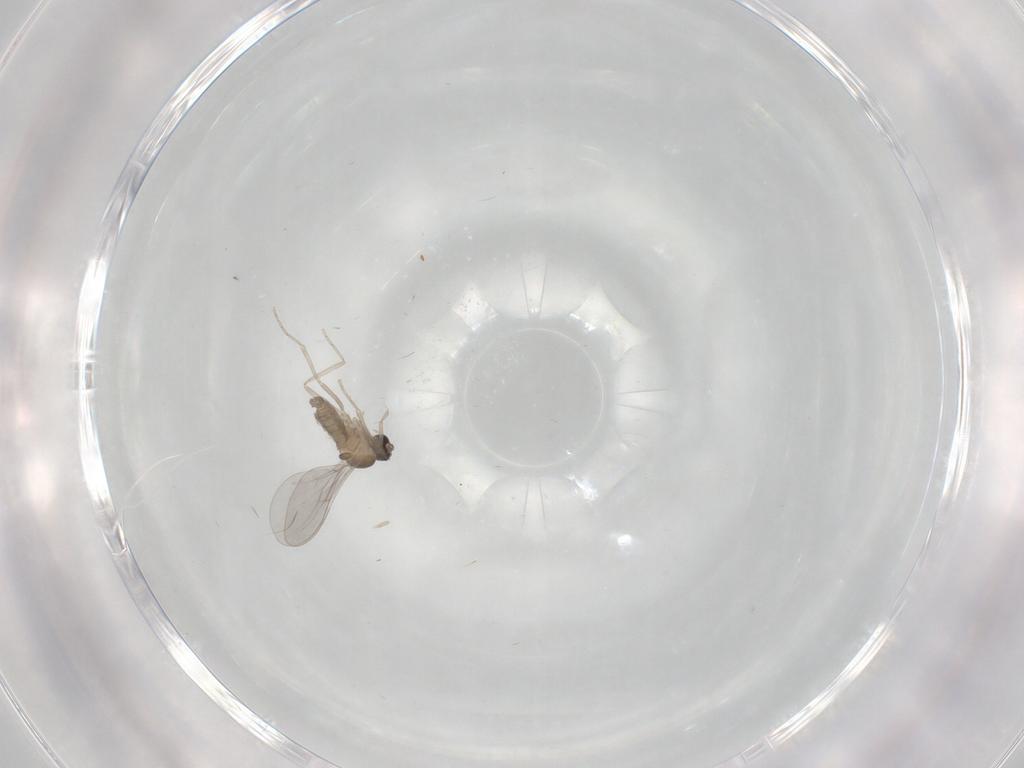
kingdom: Animalia
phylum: Arthropoda
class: Insecta
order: Diptera
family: Cecidomyiidae
